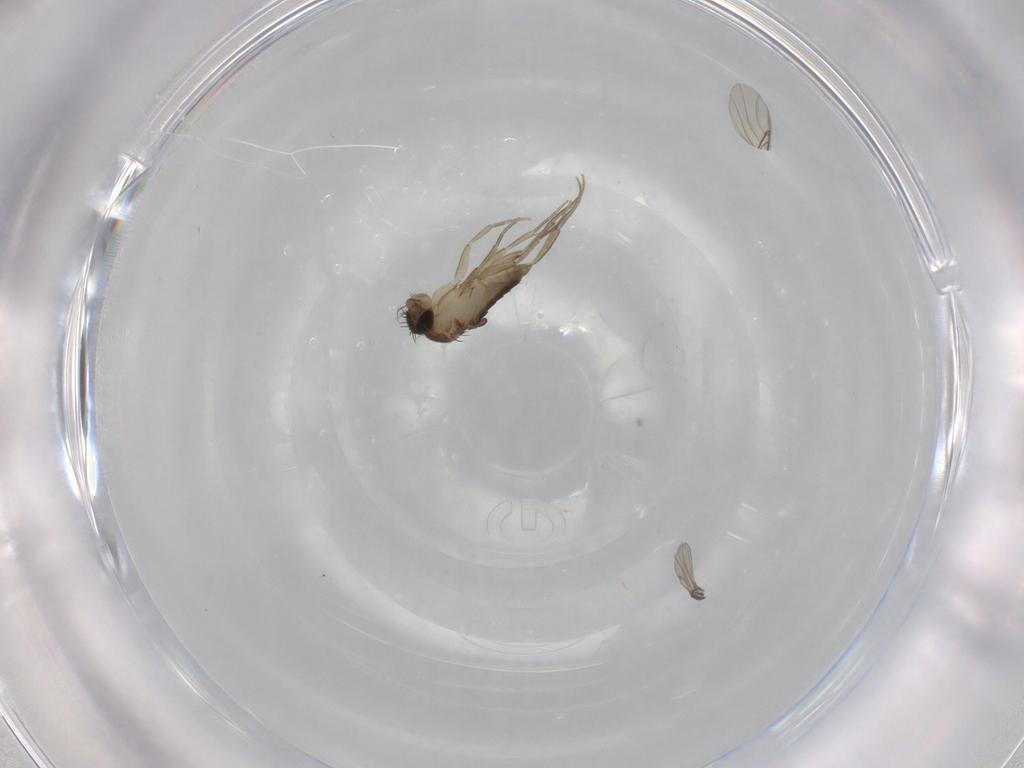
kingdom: Animalia
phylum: Arthropoda
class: Insecta
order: Diptera
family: Phoridae
